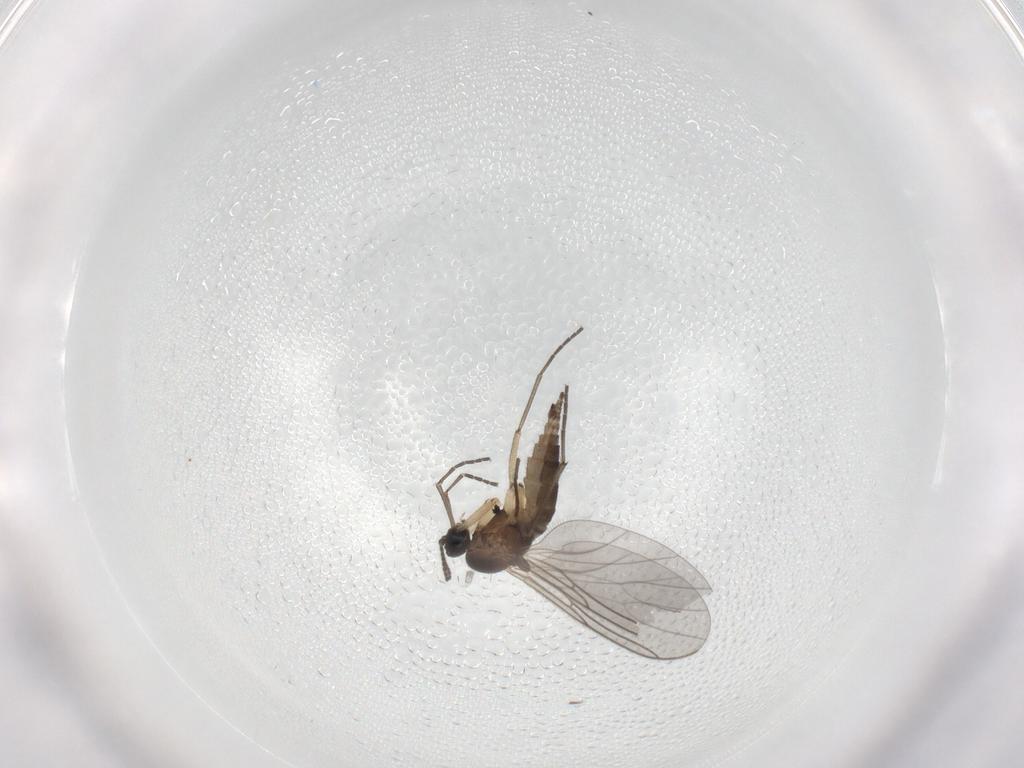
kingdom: Animalia
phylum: Arthropoda
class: Insecta
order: Diptera
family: Sciaridae
